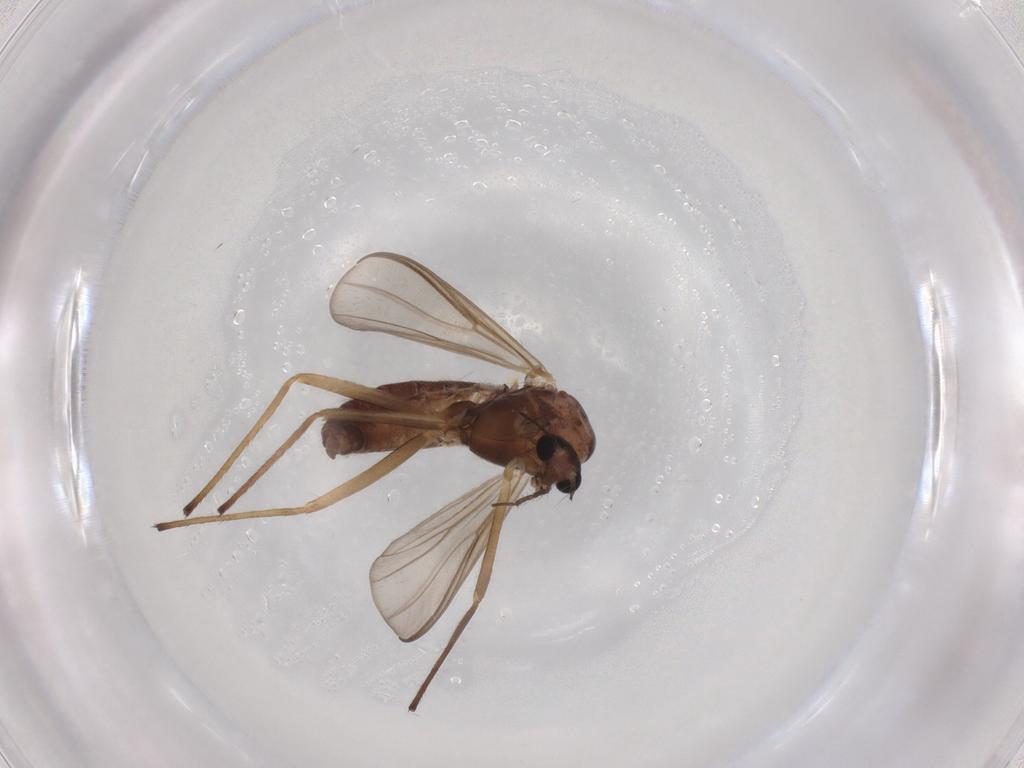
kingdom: Animalia
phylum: Arthropoda
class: Insecta
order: Diptera
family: Chironomidae
